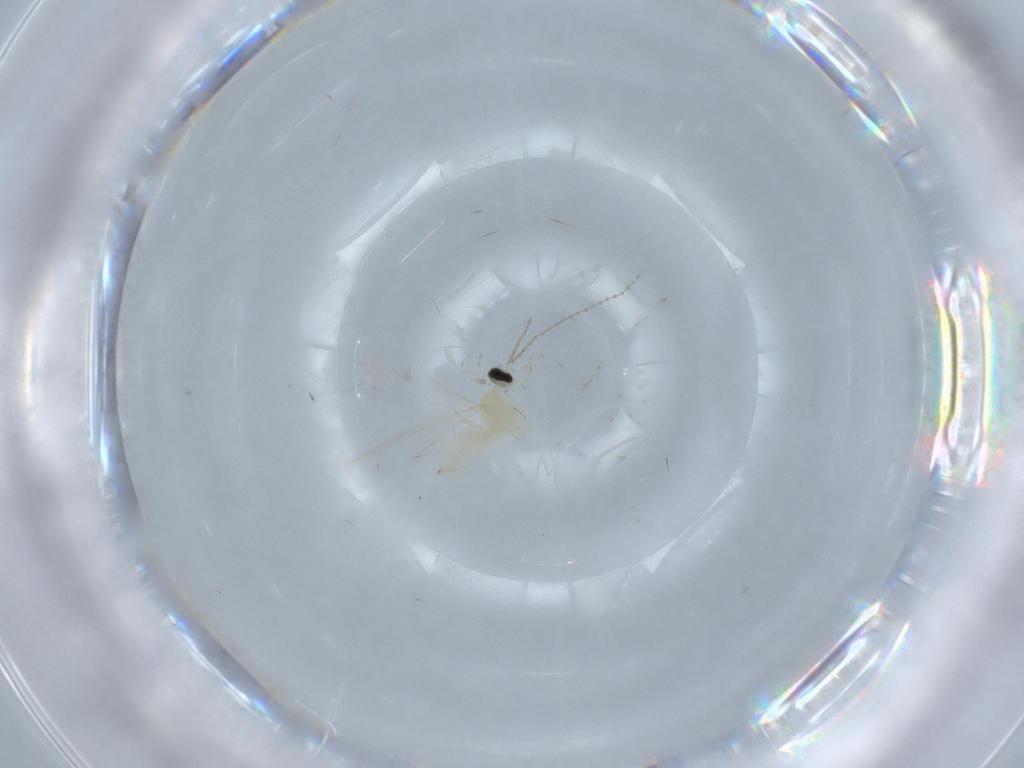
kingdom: Animalia
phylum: Arthropoda
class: Insecta
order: Diptera
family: Cecidomyiidae
